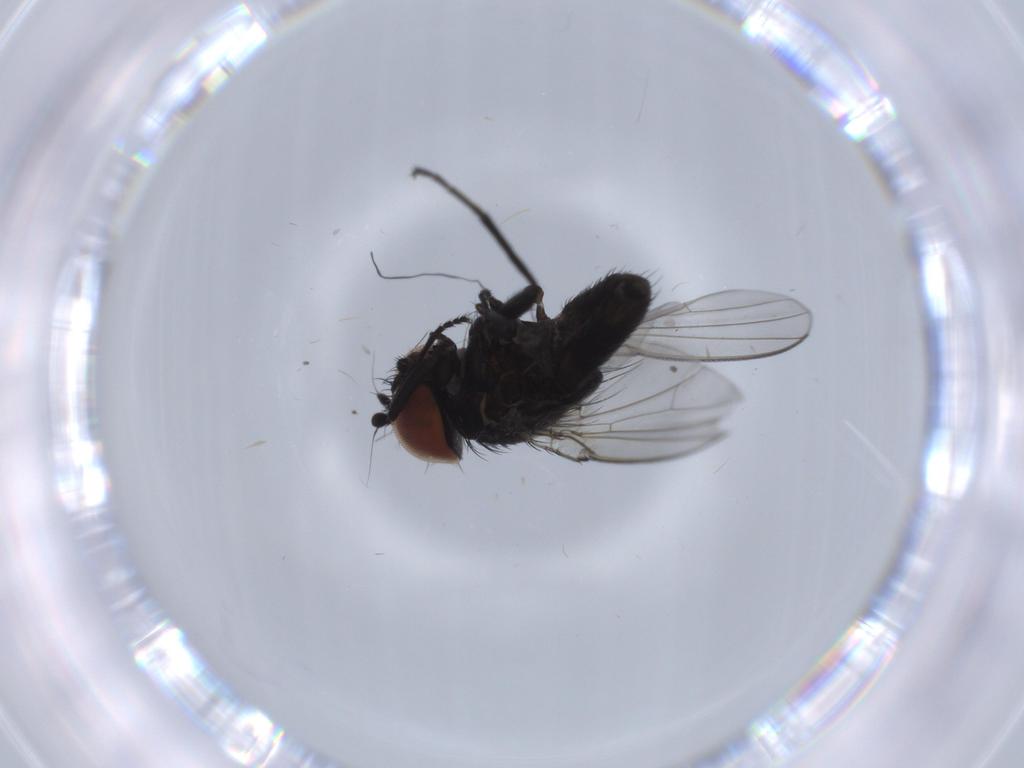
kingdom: Animalia
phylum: Arthropoda
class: Insecta
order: Diptera
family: Milichiidae
